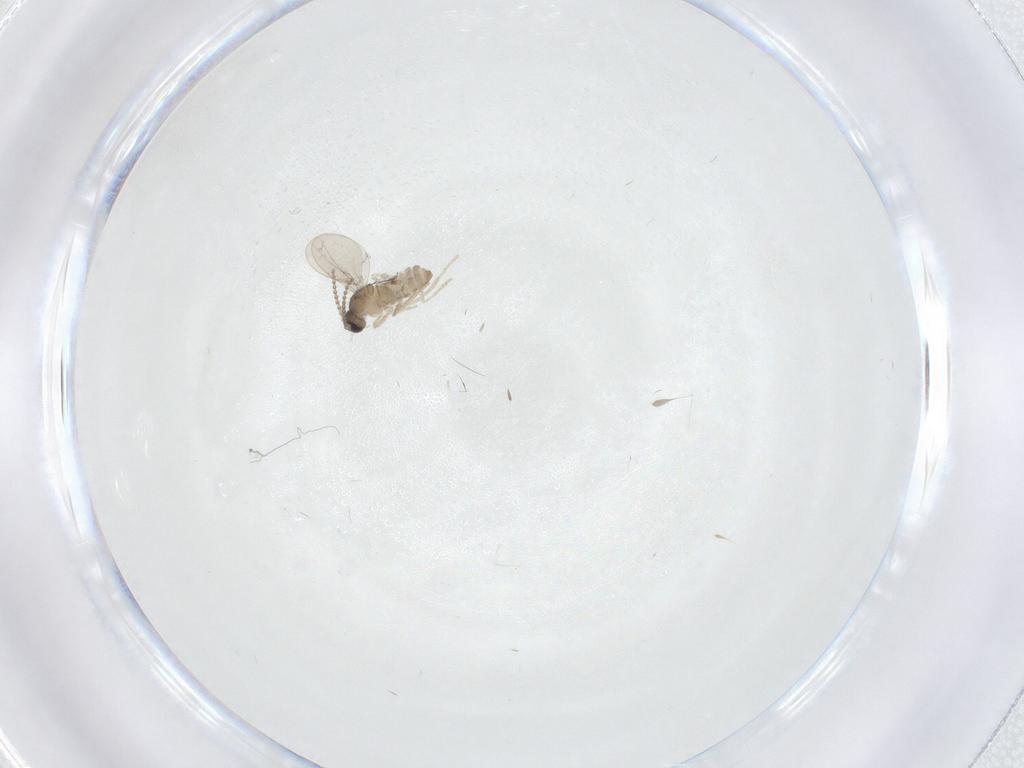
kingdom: Animalia
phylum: Arthropoda
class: Insecta
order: Diptera
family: Cecidomyiidae
